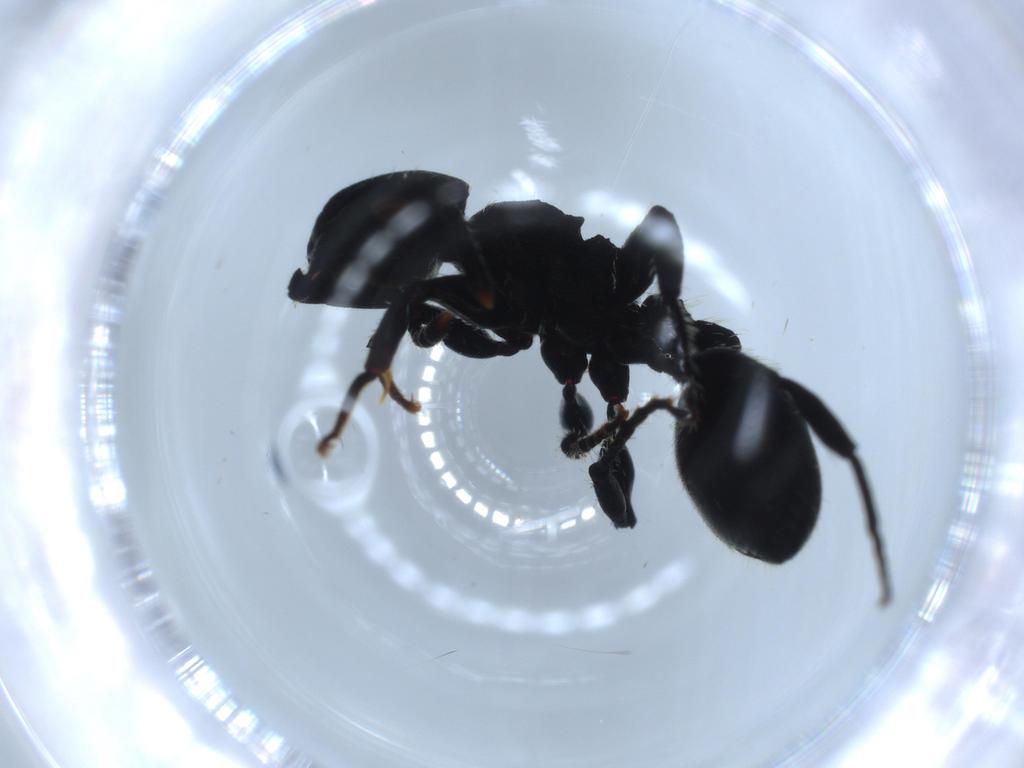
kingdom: Animalia
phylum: Arthropoda
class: Insecta
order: Hymenoptera
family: Formicidae
